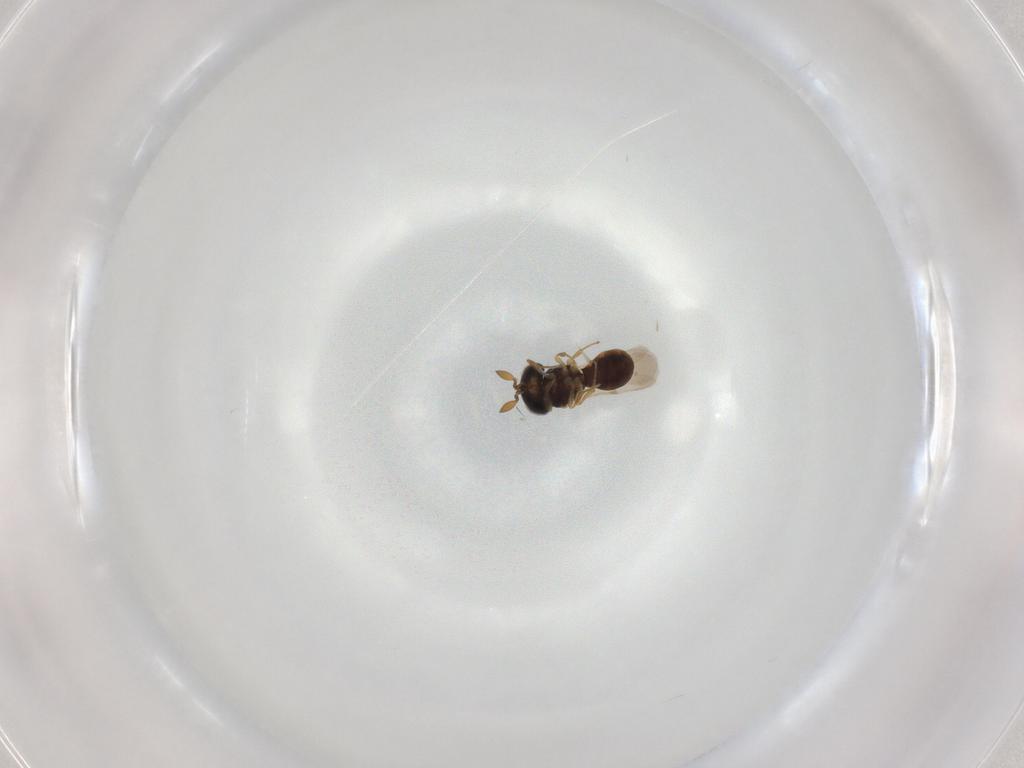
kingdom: Animalia
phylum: Arthropoda
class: Insecta
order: Hymenoptera
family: Scelionidae
